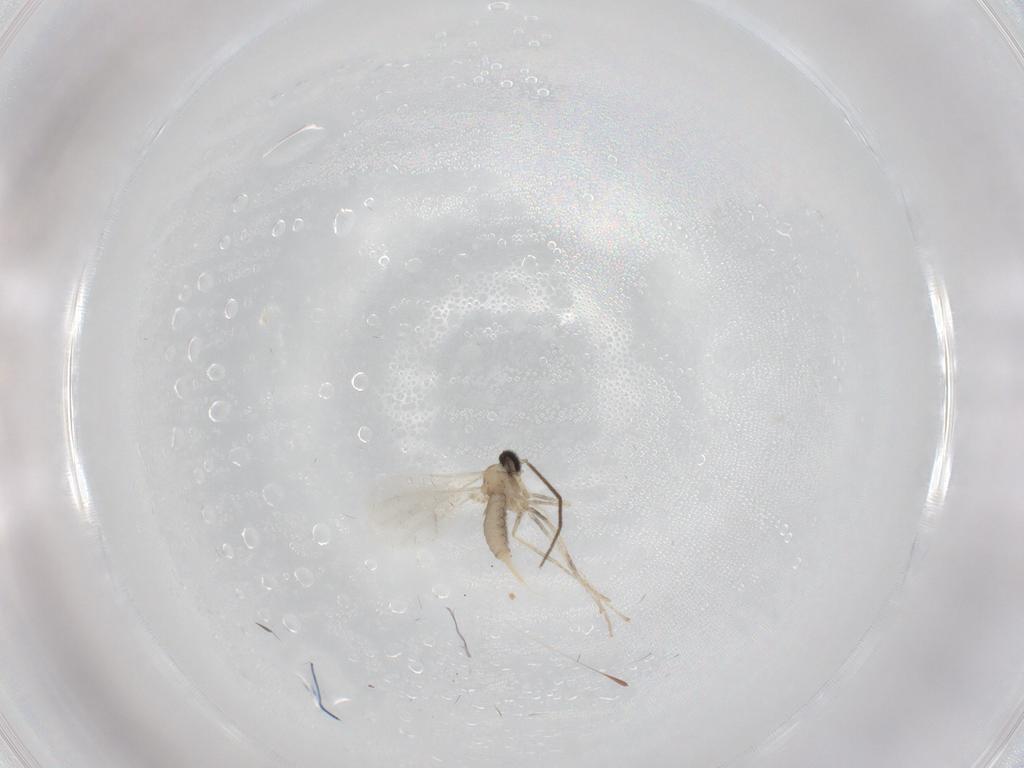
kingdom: Animalia
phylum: Arthropoda
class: Insecta
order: Diptera
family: Cecidomyiidae
